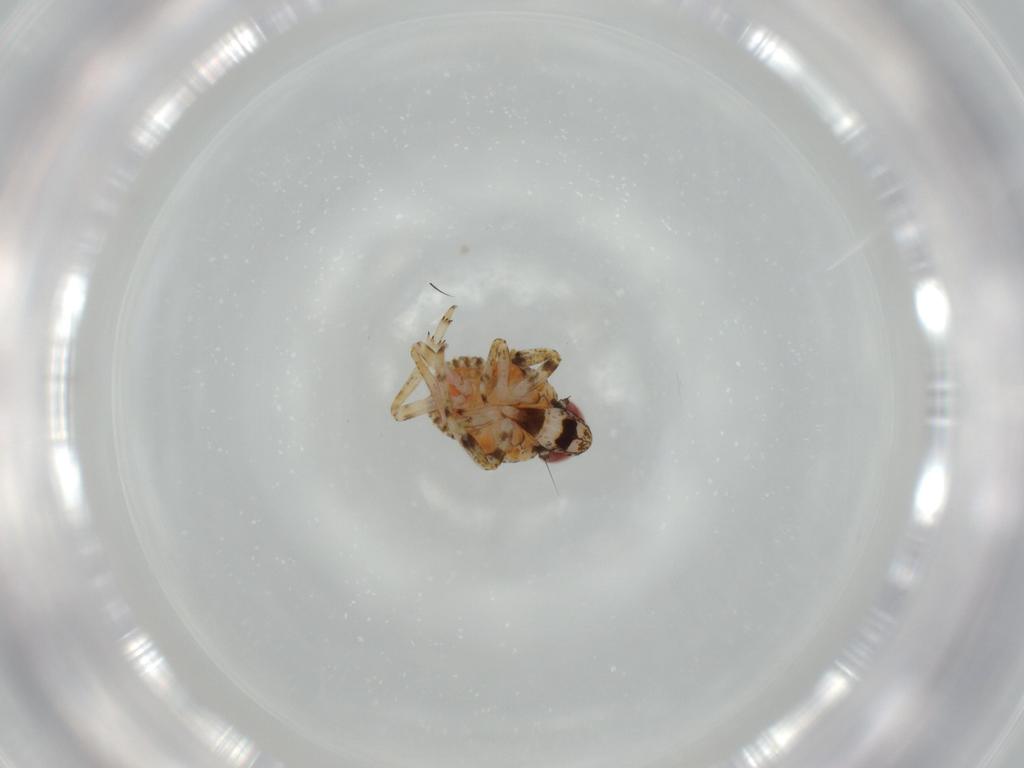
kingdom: Animalia
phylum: Arthropoda
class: Insecta
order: Hemiptera
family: Issidae
